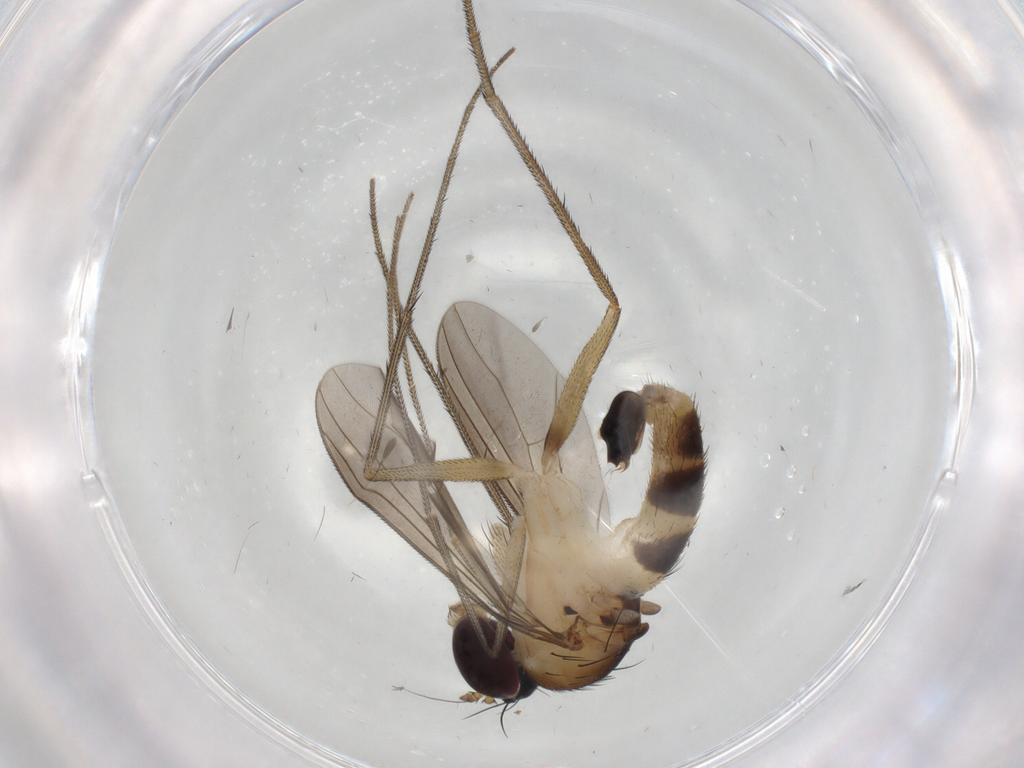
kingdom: Animalia
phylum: Arthropoda
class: Insecta
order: Diptera
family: Dolichopodidae
